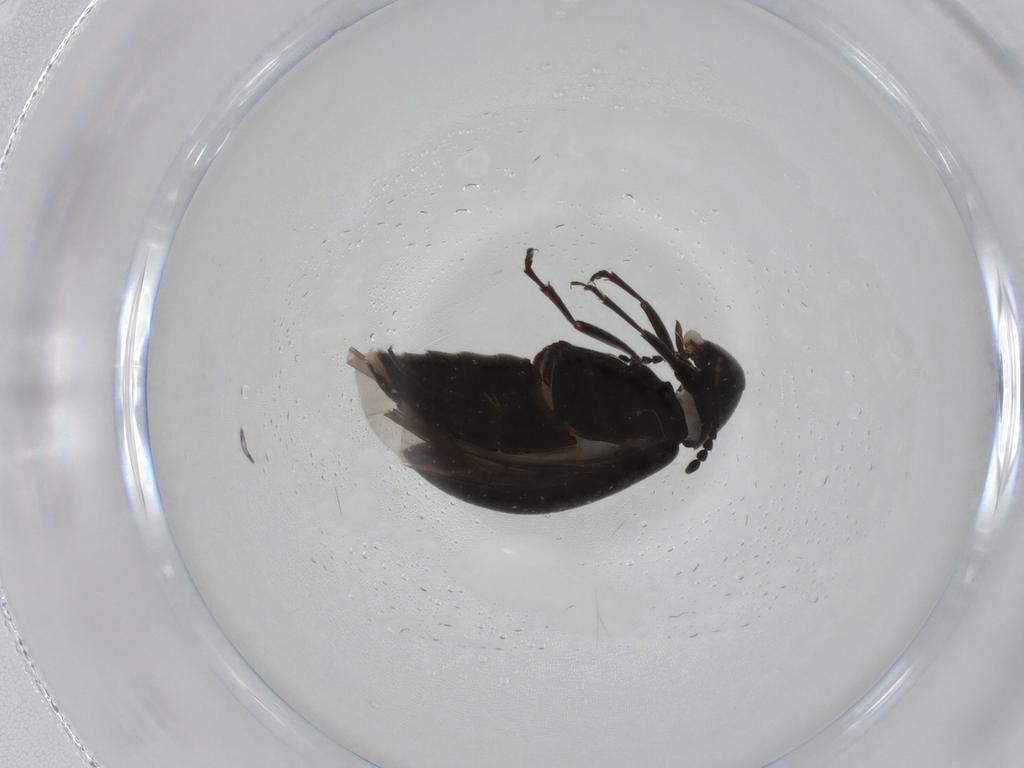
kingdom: Animalia
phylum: Arthropoda
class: Insecta
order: Coleoptera
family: Scraptiidae
